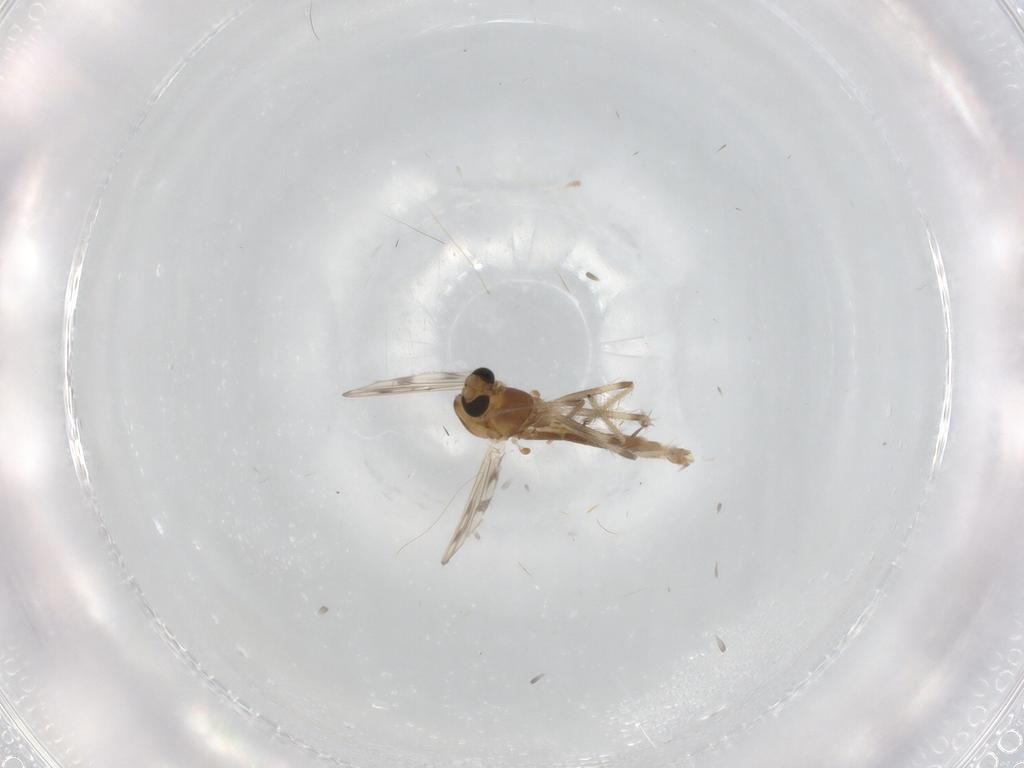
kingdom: Animalia
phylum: Arthropoda
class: Insecta
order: Diptera
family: Chironomidae
